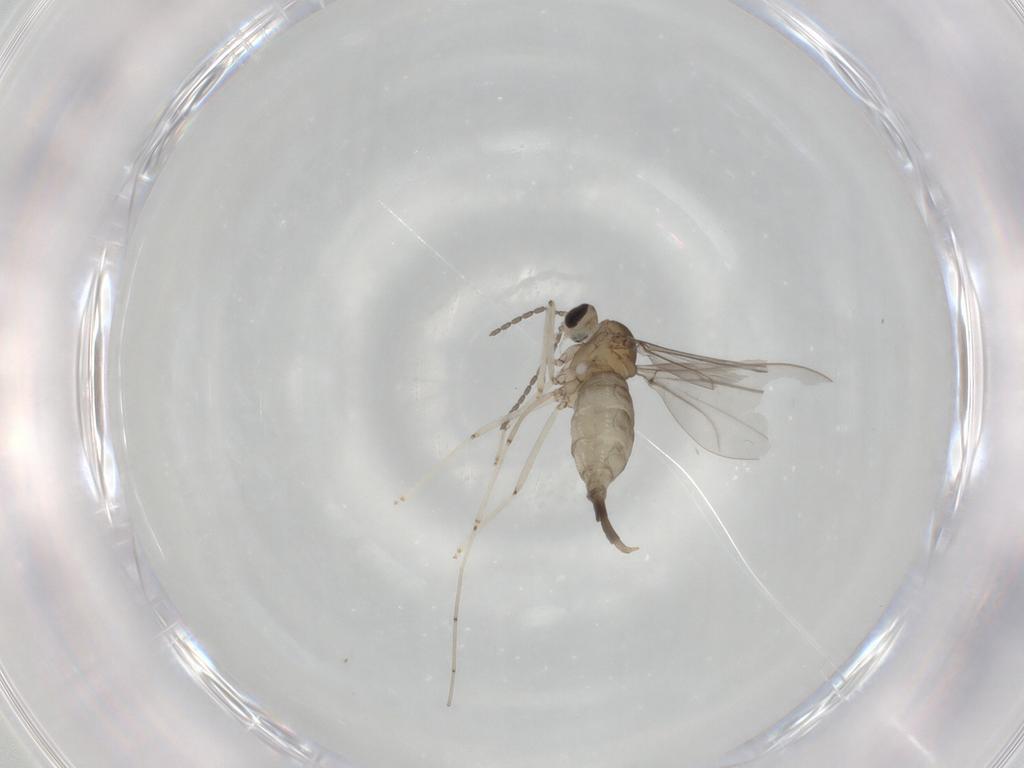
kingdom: Animalia
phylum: Arthropoda
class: Insecta
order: Diptera
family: Cecidomyiidae
